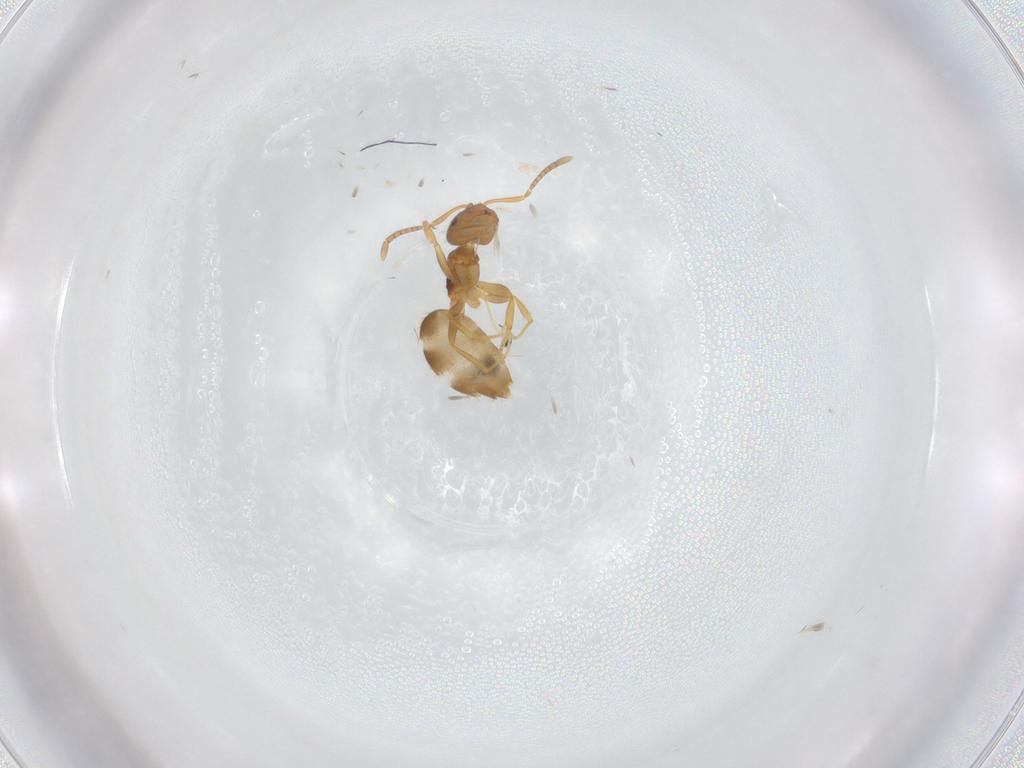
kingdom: Animalia
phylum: Arthropoda
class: Insecta
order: Hymenoptera
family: Formicidae
